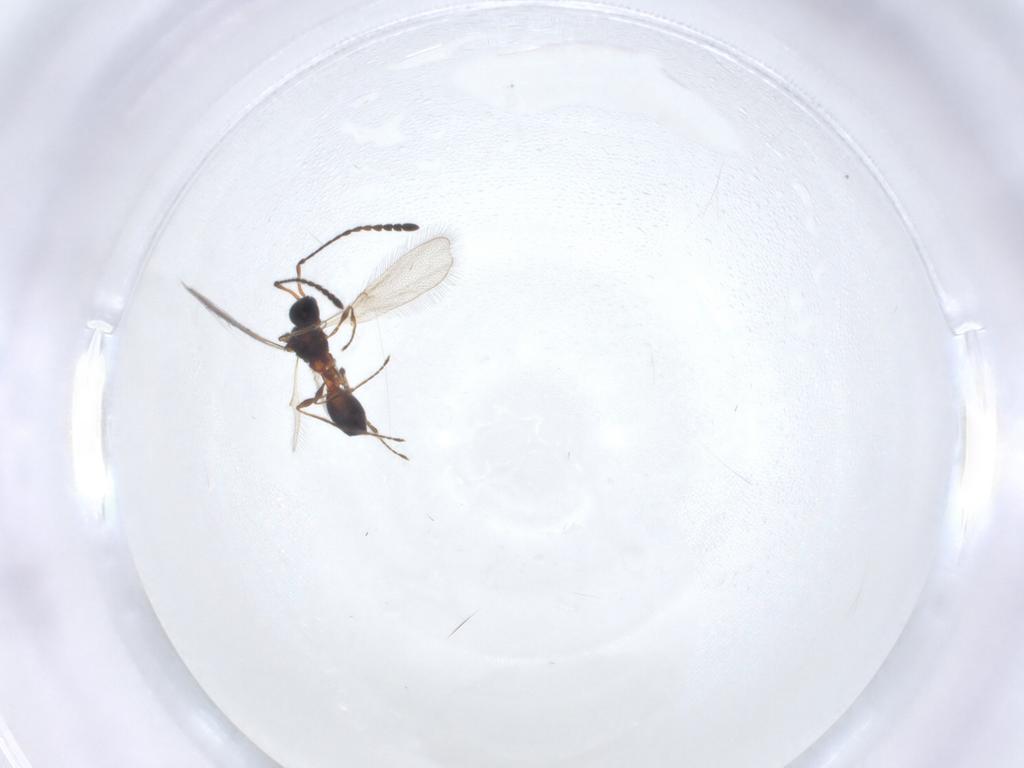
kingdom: Animalia
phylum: Arthropoda
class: Insecta
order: Hymenoptera
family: Diapriidae
